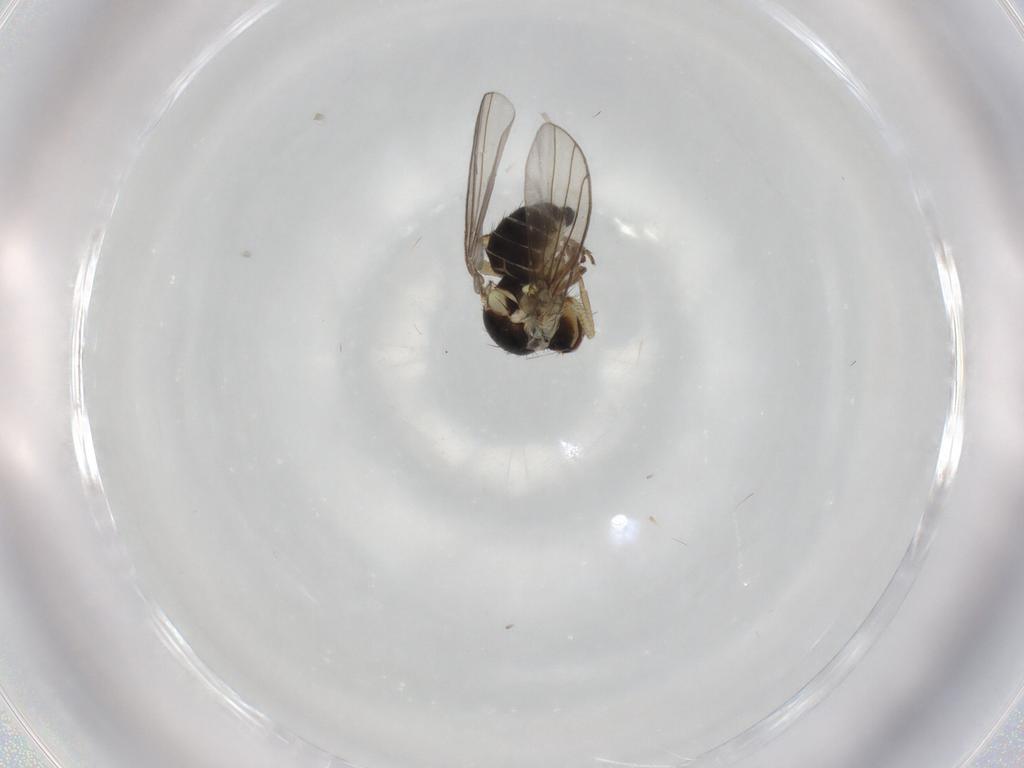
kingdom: Animalia
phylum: Arthropoda
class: Insecta
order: Diptera
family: Agromyzidae
